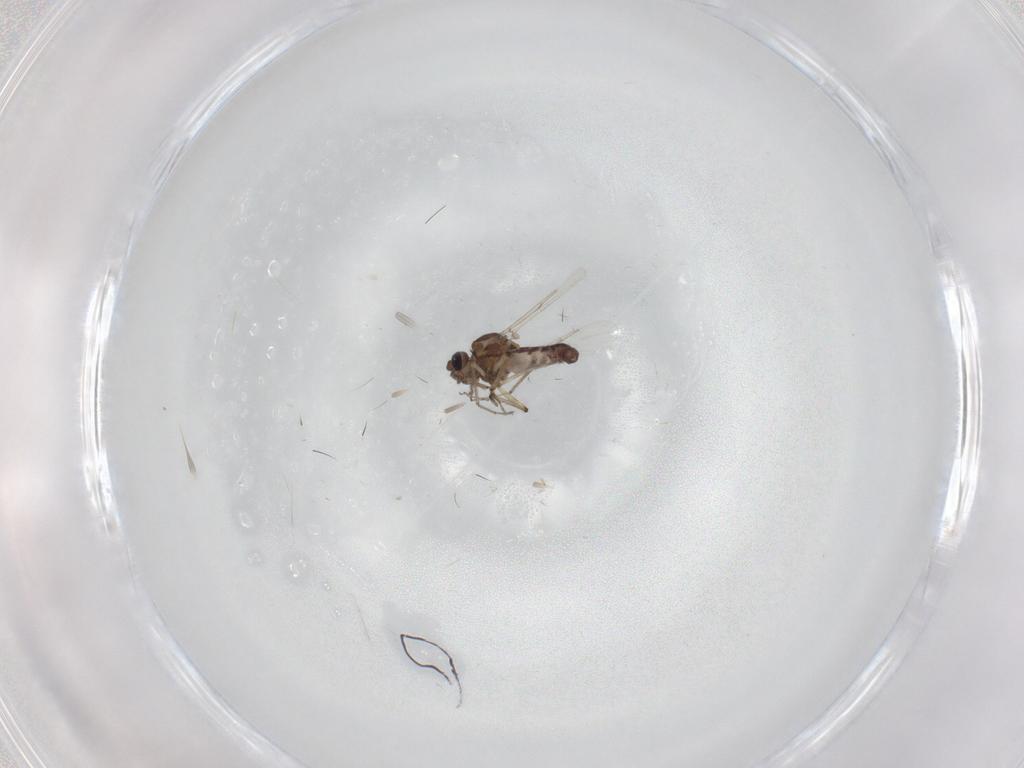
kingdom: Animalia
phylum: Arthropoda
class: Insecta
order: Diptera
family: Ceratopogonidae
